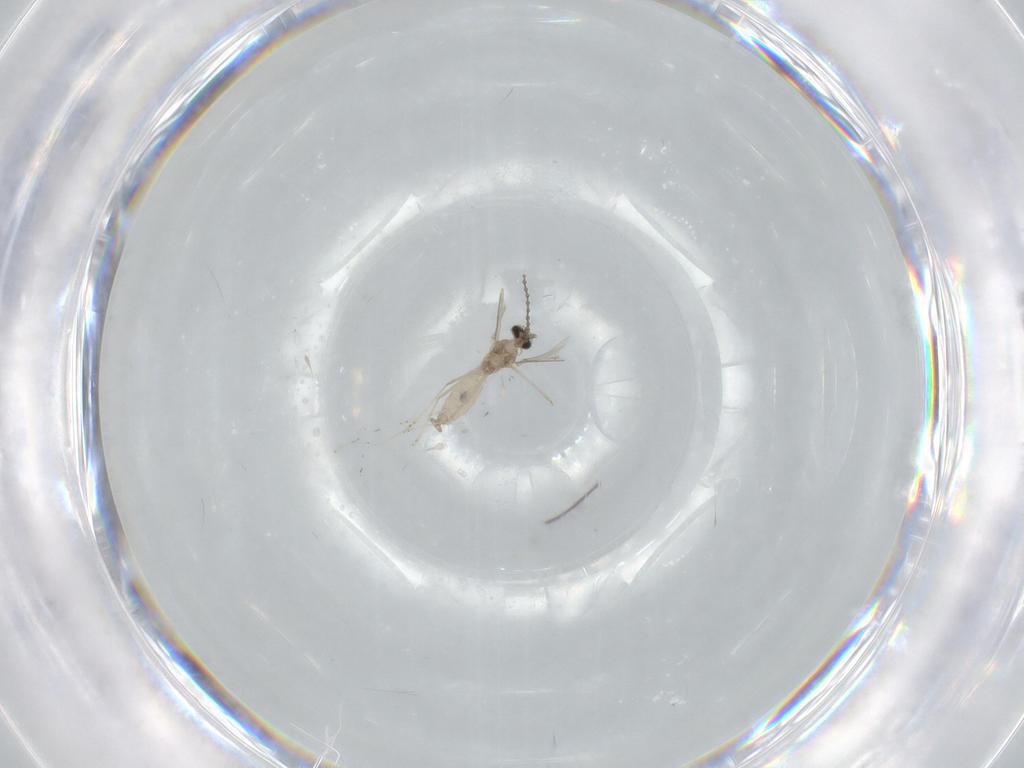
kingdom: Animalia
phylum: Arthropoda
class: Insecta
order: Diptera
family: Cecidomyiidae
